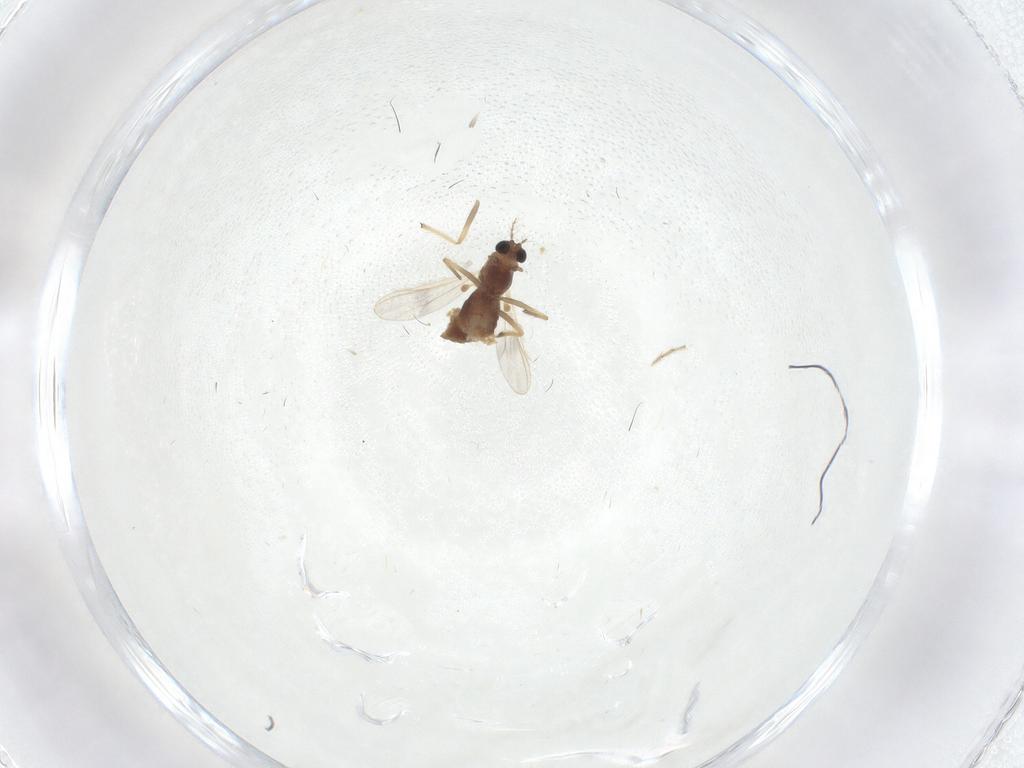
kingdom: Animalia
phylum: Arthropoda
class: Insecta
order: Diptera
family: Chironomidae
